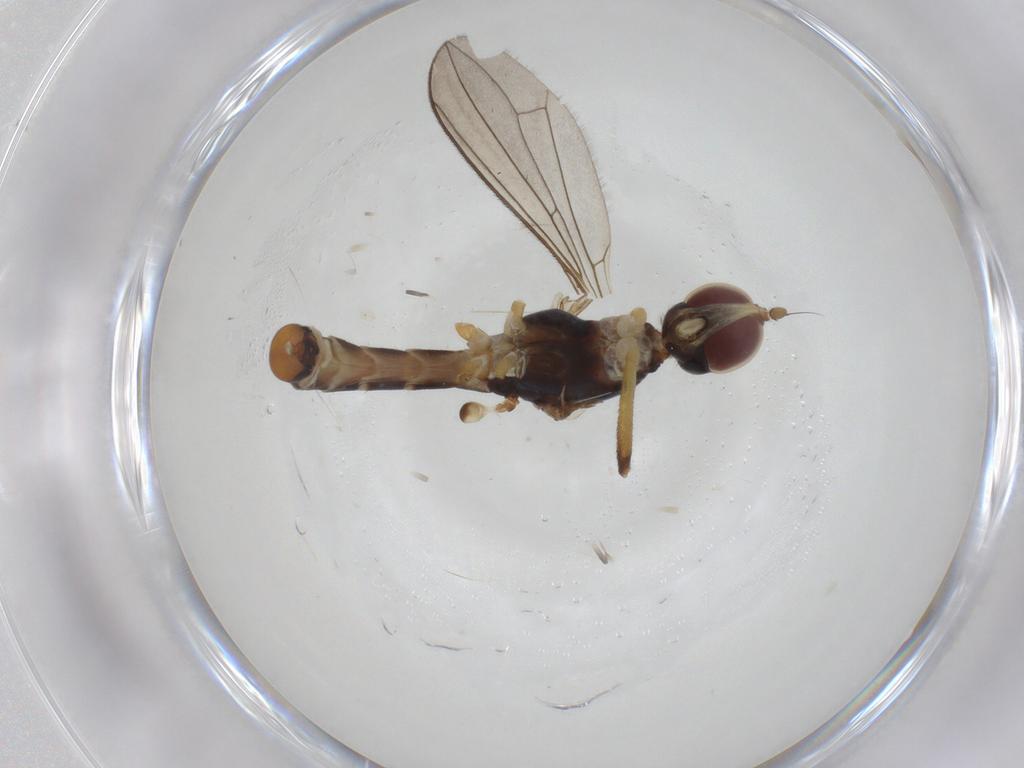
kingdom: Animalia
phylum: Arthropoda
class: Insecta
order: Diptera
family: Micropezidae
